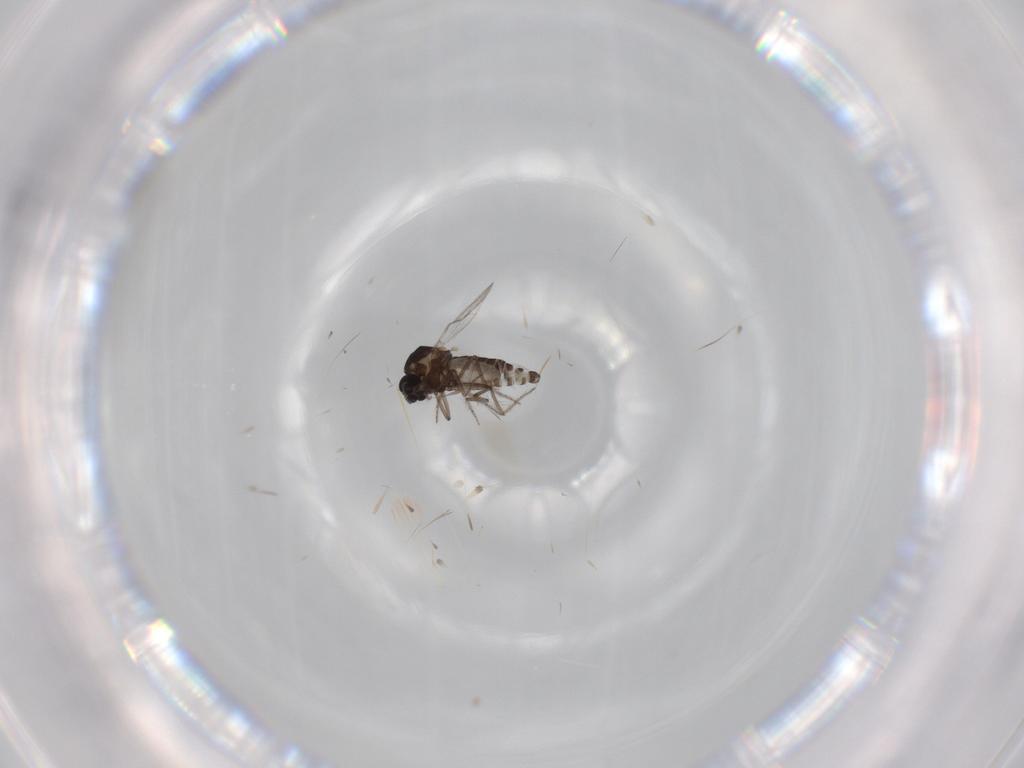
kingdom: Animalia
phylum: Arthropoda
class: Insecta
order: Diptera
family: Ceratopogonidae
